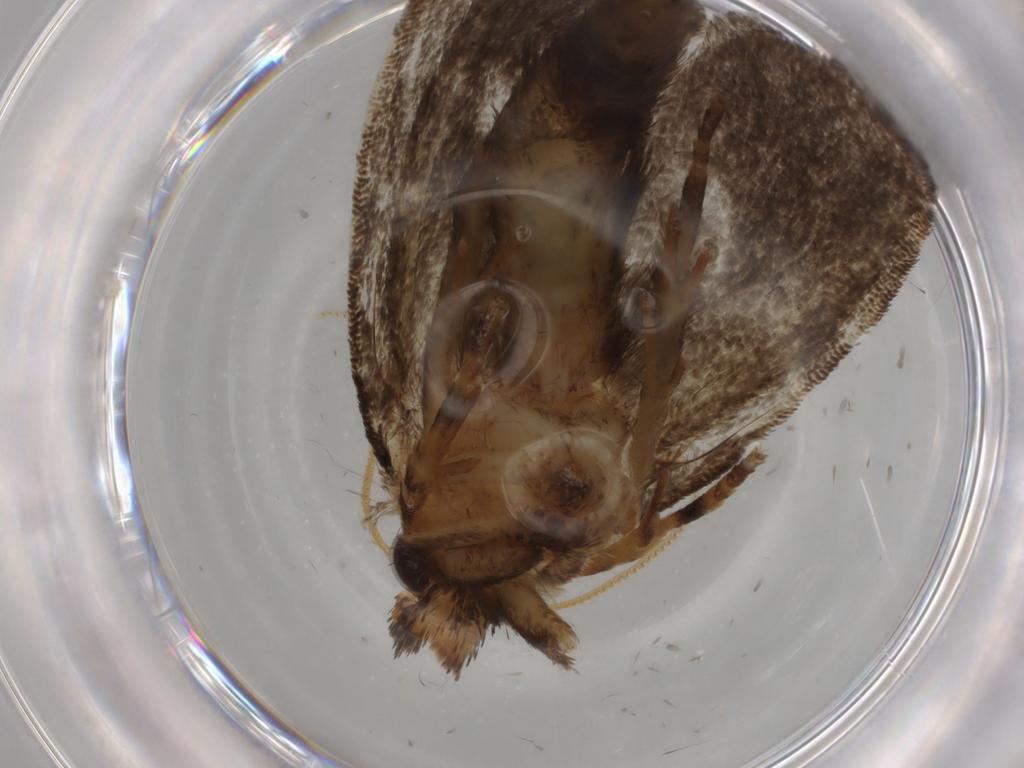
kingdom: Animalia
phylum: Arthropoda
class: Insecta
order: Lepidoptera
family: Tineidae
